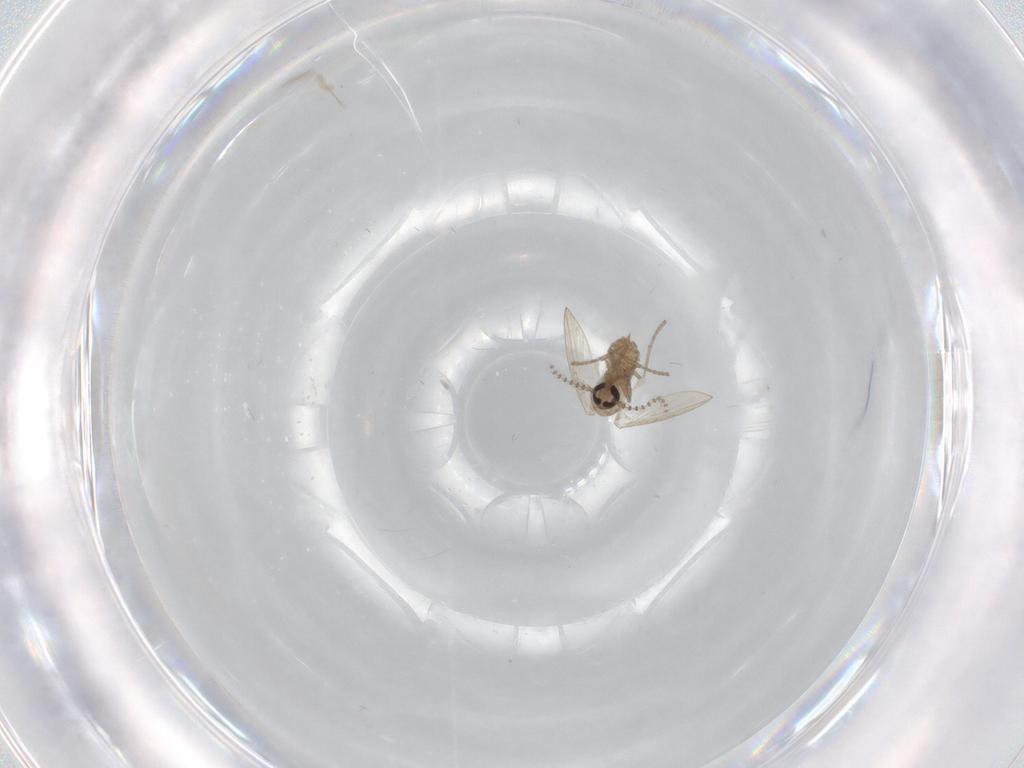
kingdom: Animalia
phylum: Arthropoda
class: Insecta
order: Diptera
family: Psychodidae
